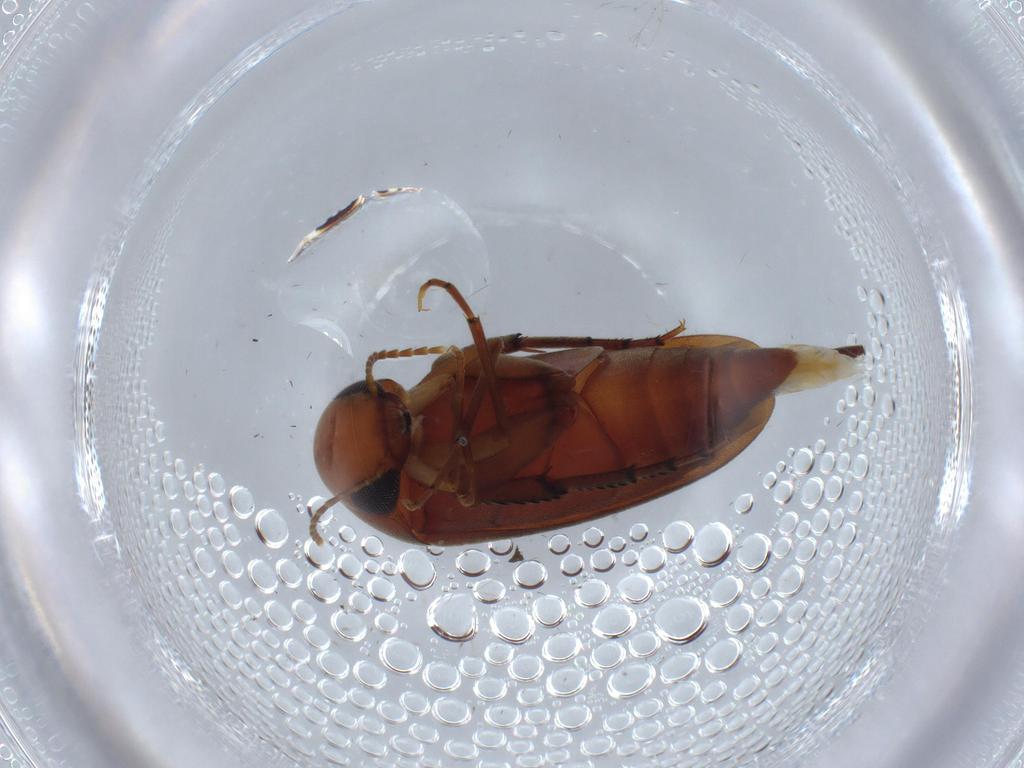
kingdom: Animalia
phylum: Arthropoda
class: Insecta
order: Coleoptera
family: Mordellidae
